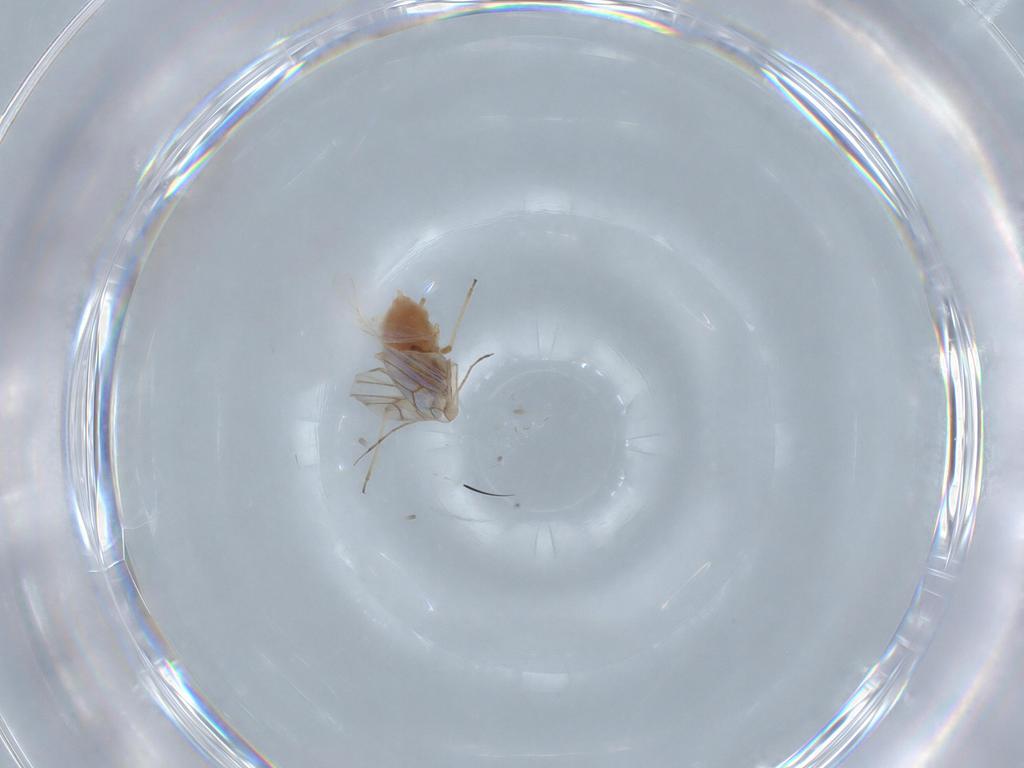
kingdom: Animalia
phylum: Arthropoda
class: Insecta
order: Hemiptera
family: Aphididae
